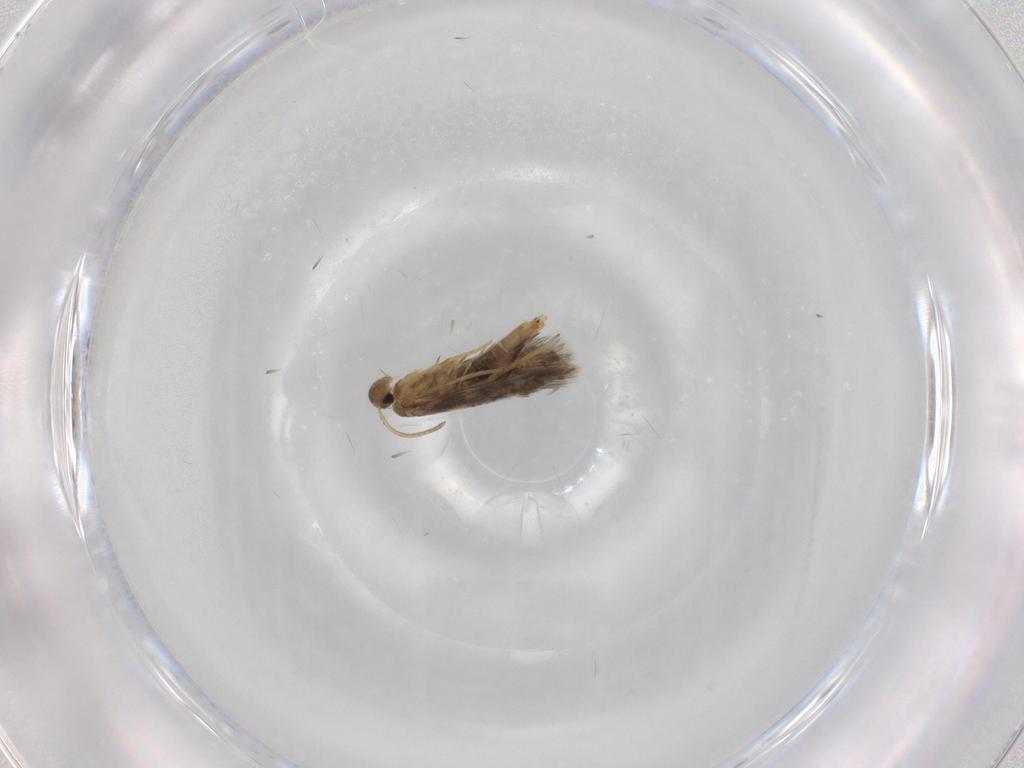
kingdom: Animalia
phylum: Arthropoda
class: Insecta
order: Lepidoptera
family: Heliozelidae
